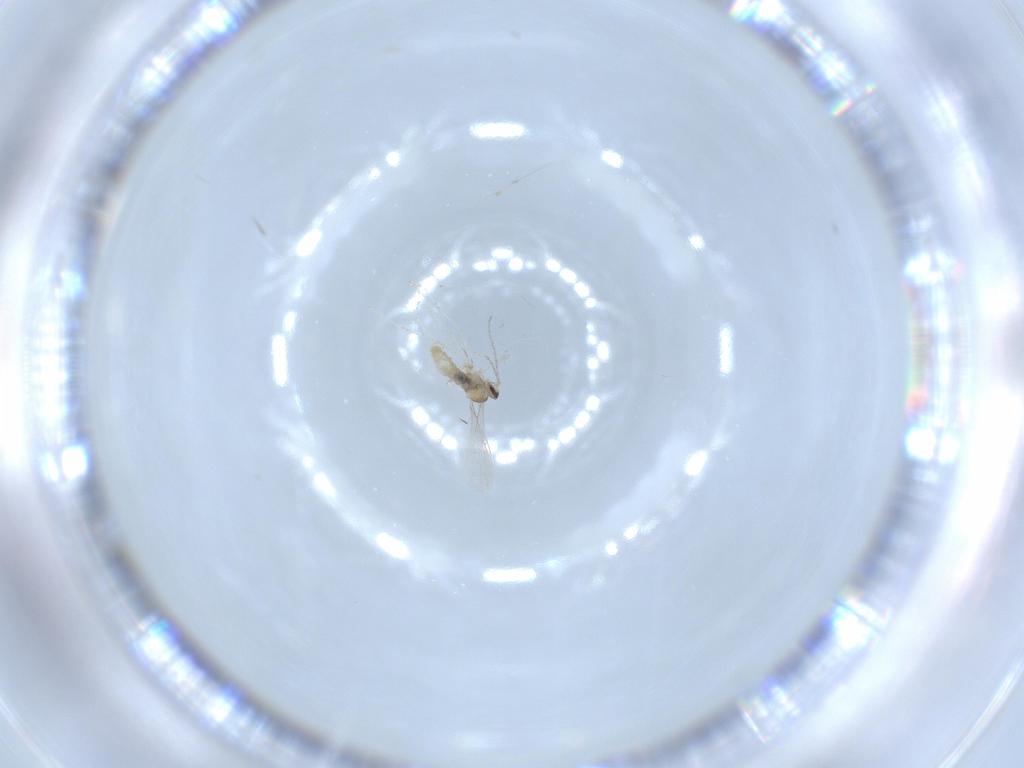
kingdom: Animalia
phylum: Arthropoda
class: Insecta
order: Diptera
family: Cecidomyiidae
